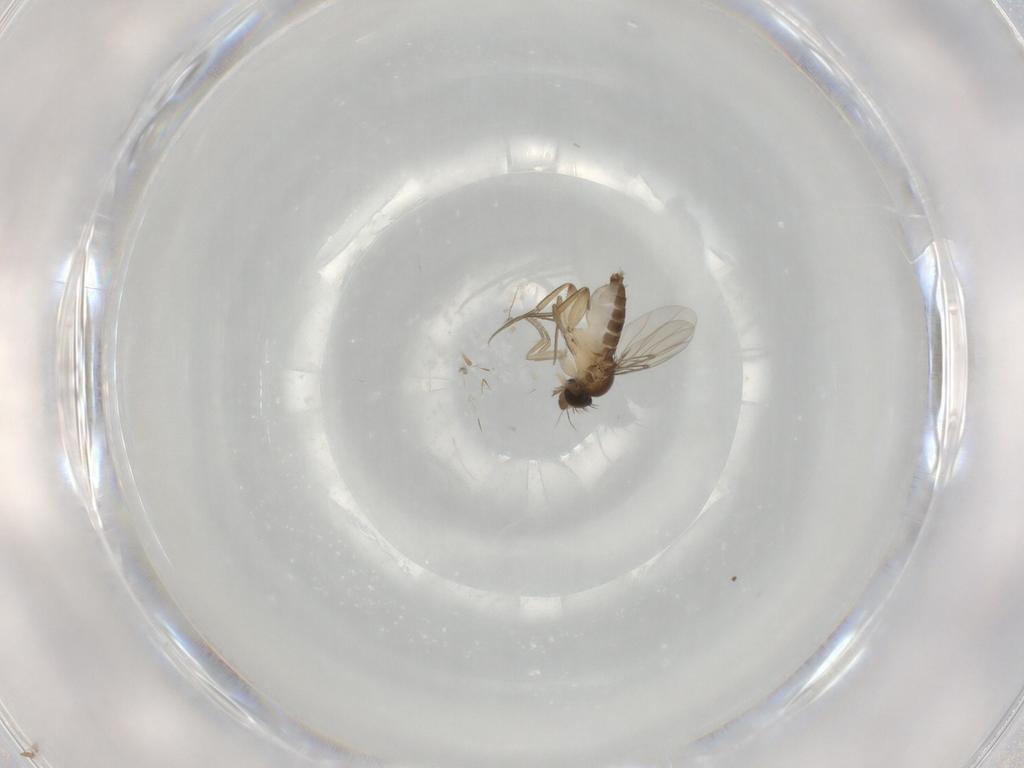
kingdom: Animalia
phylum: Arthropoda
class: Insecta
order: Diptera
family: Phoridae
